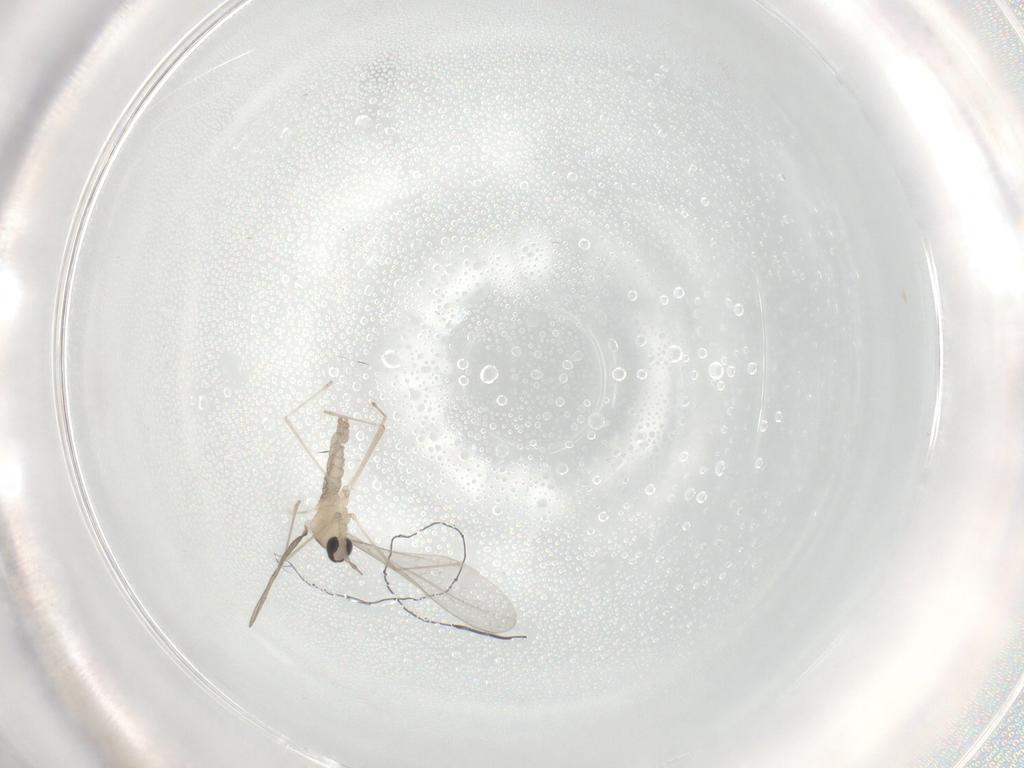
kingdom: Animalia
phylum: Arthropoda
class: Insecta
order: Diptera
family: Cecidomyiidae
